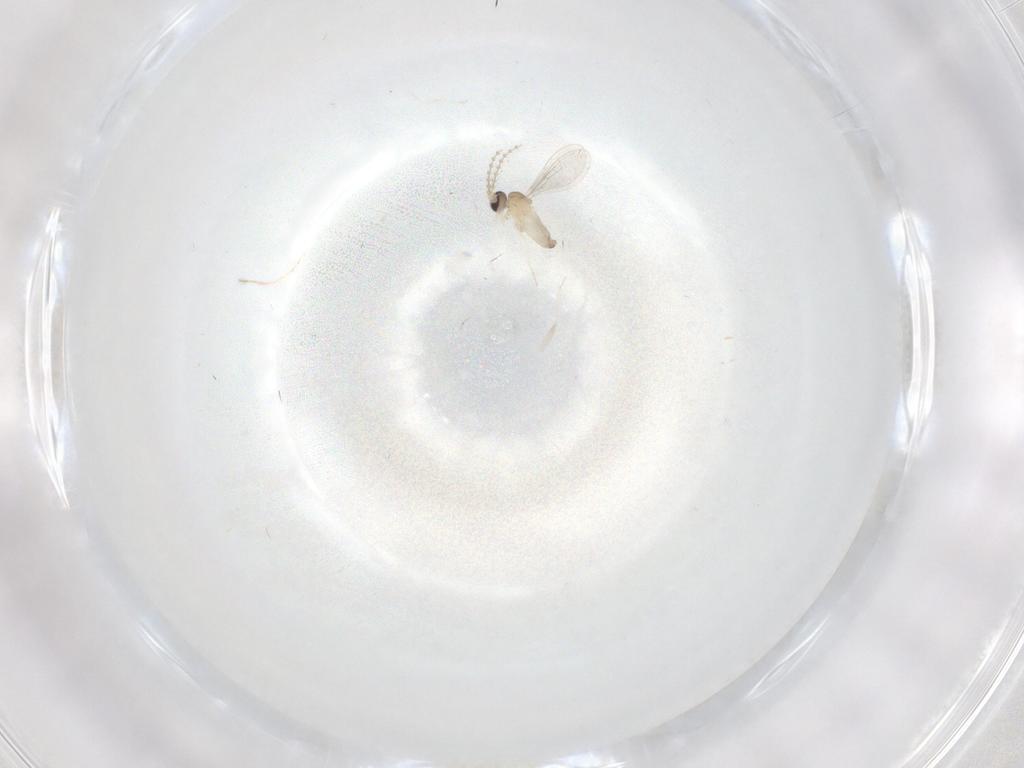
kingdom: Animalia
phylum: Arthropoda
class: Insecta
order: Diptera
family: Cecidomyiidae
